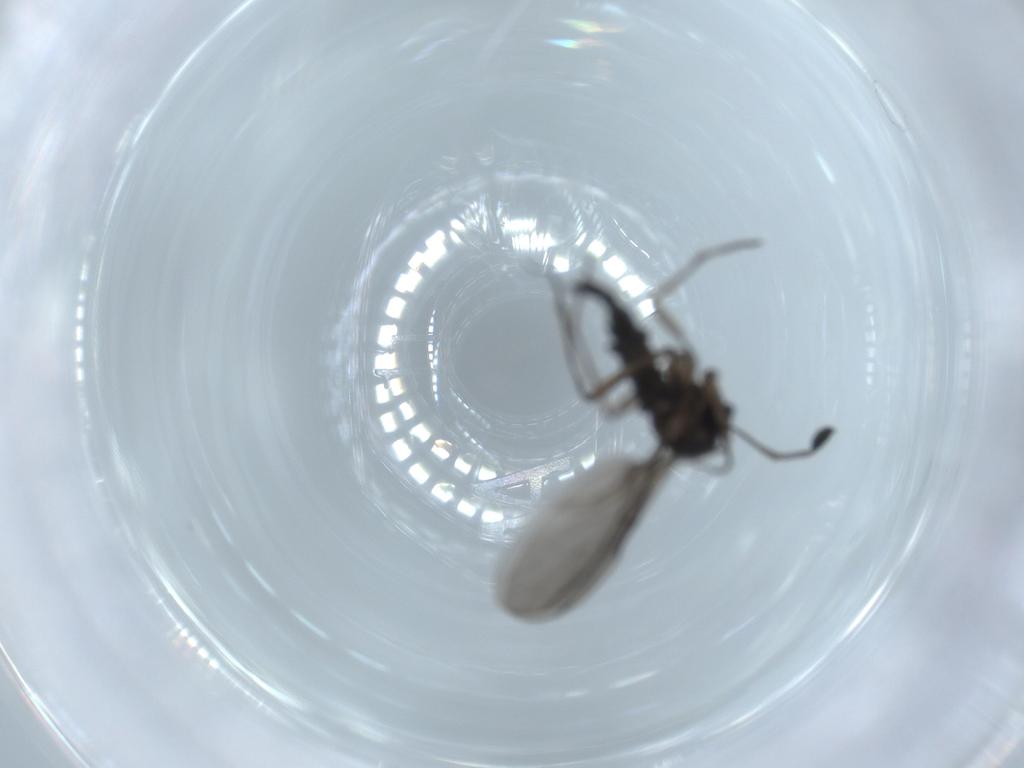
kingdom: Animalia
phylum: Arthropoda
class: Insecta
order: Diptera
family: Sciaridae
